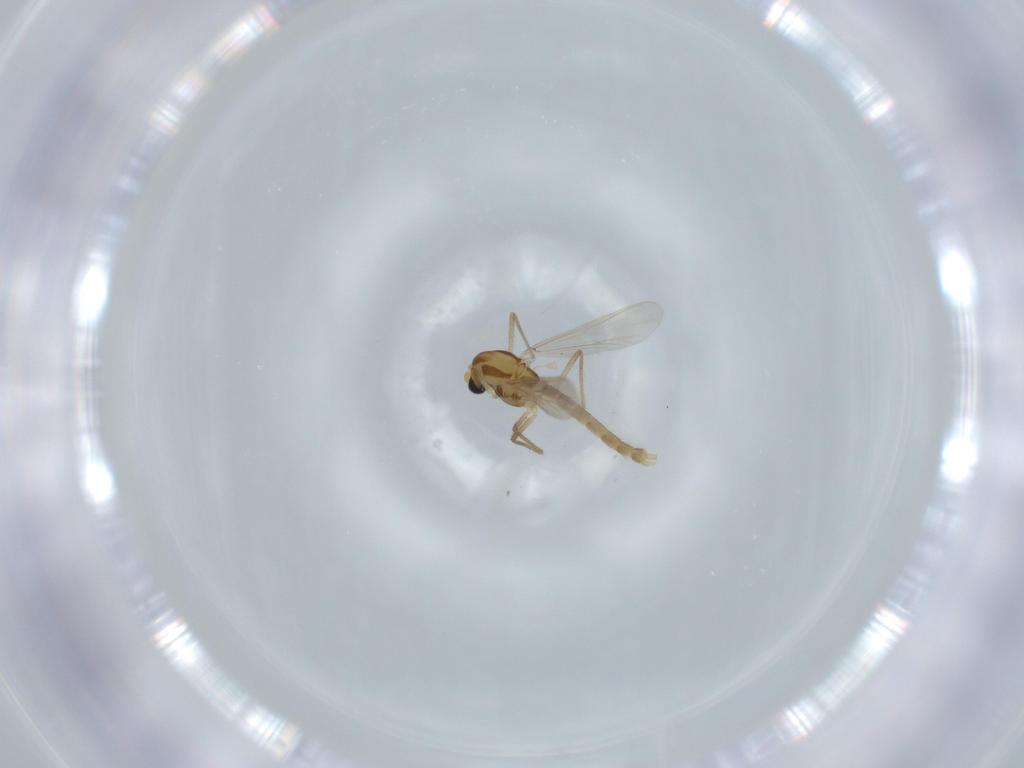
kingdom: Animalia
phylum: Arthropoda
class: Insecta
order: Diptera
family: Chironomidae
